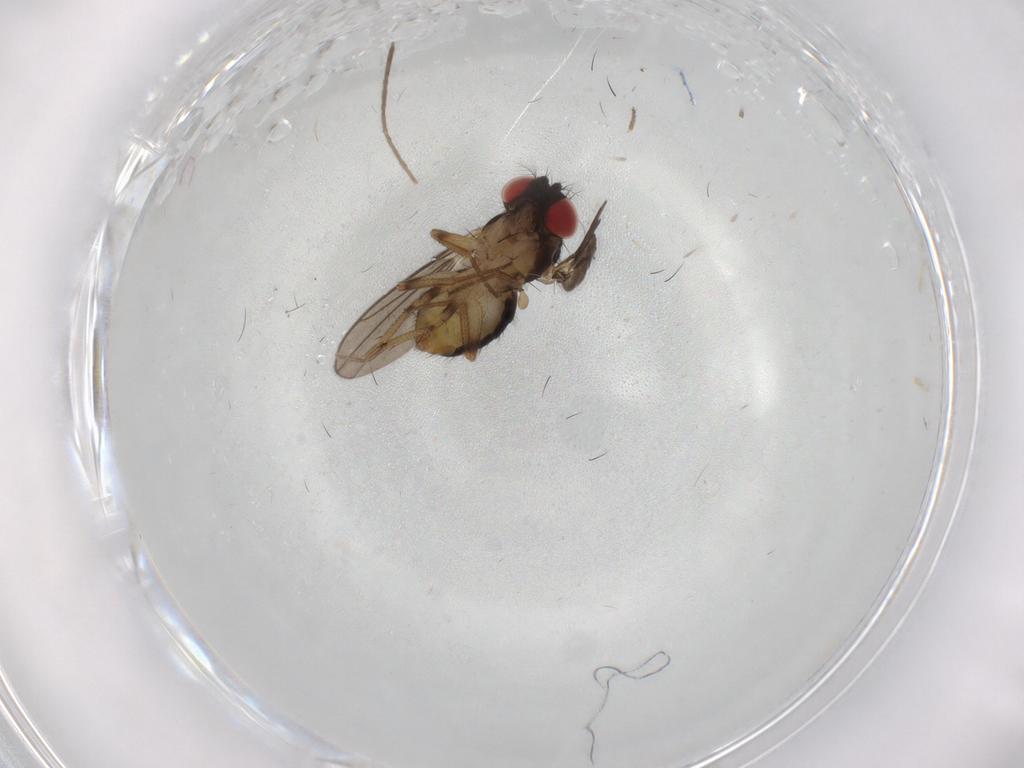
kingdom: Animalia
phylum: Arthropoda
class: Insecta
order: Diptera
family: Drosophilidae
